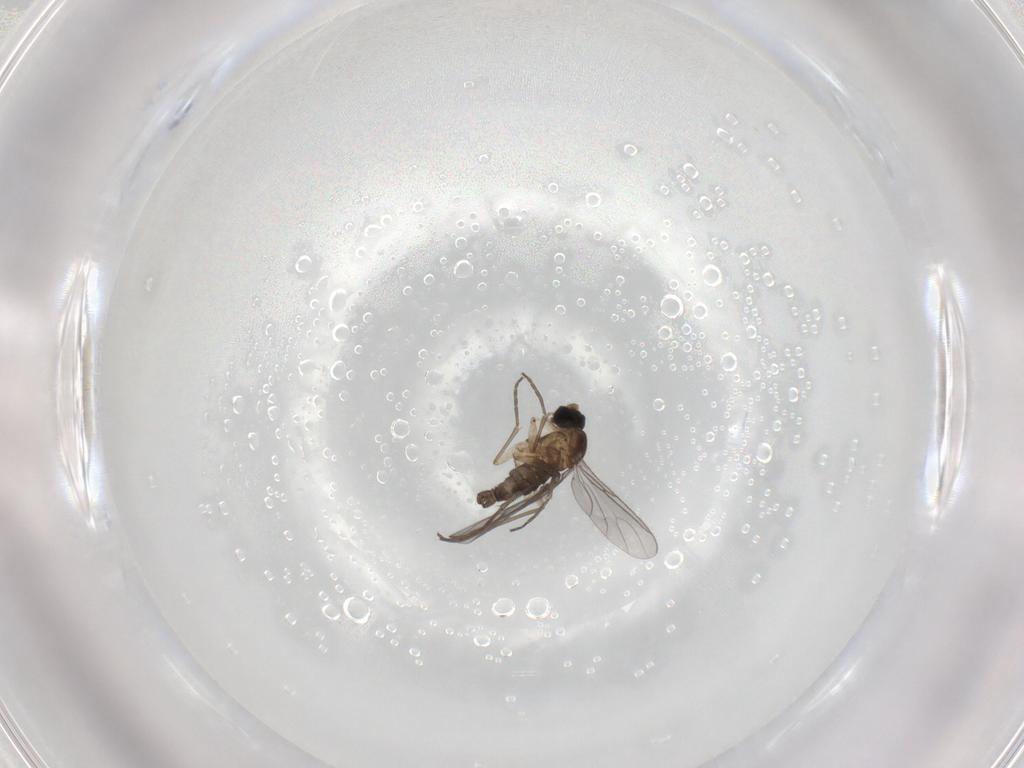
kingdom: Animalia
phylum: Arthropoda
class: Insecta
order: Diptera
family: Sciaridae
